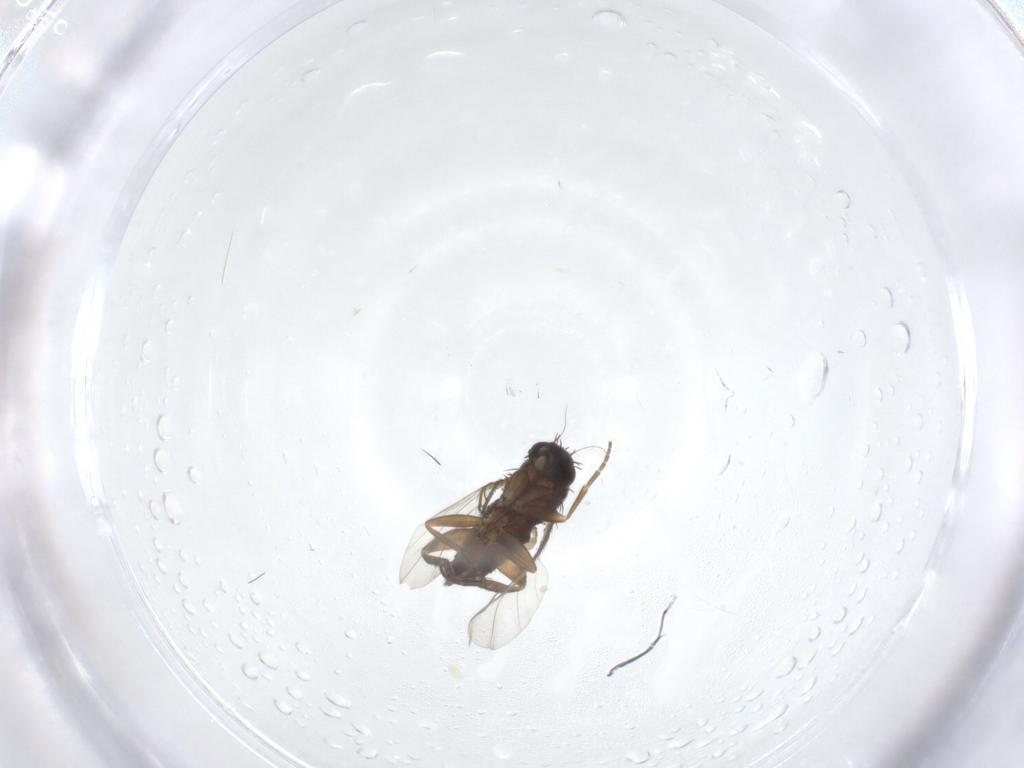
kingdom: Animalia
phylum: Arthropoda
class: Insecta
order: Diptera
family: Phoridae
